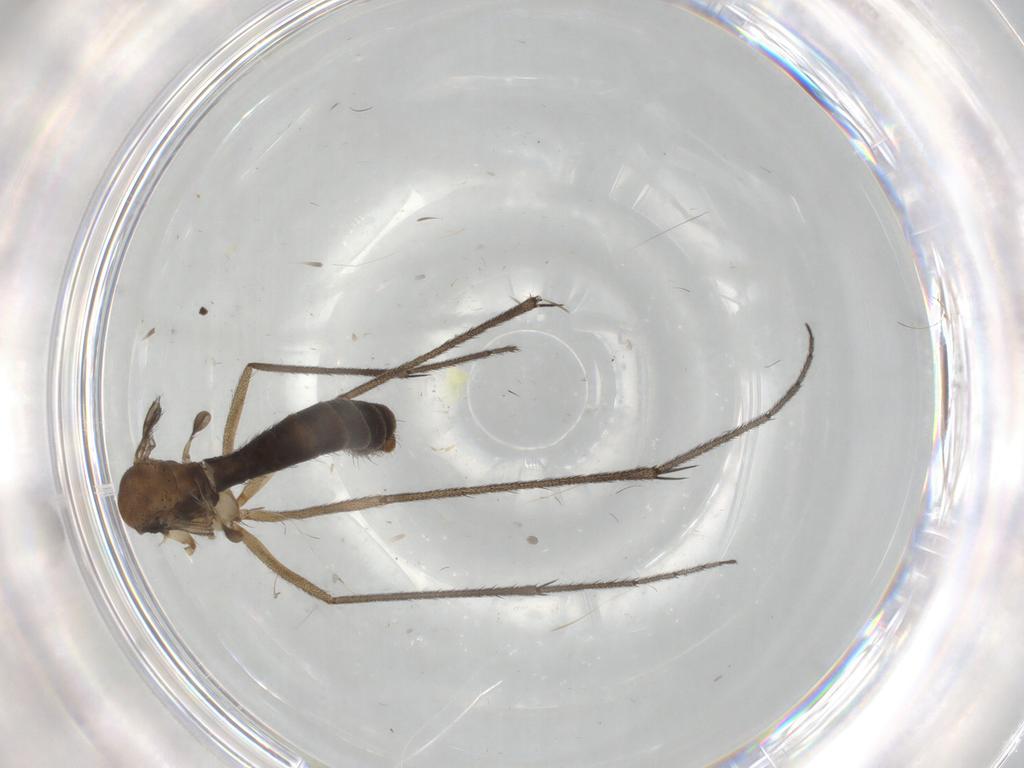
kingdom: Animalia
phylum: Arthropoda
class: Insecta
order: Diptera
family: Ditomyiidae
